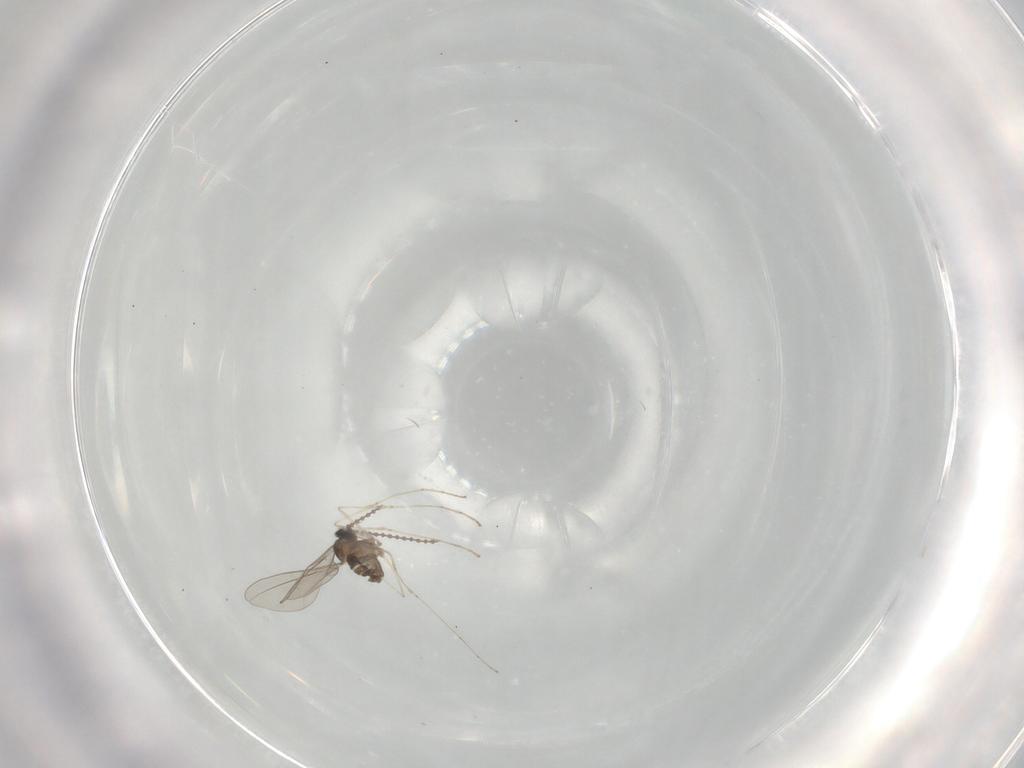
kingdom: Animalia
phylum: Arthropoda
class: Insecta
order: Diptera
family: Cecidomyiidae
